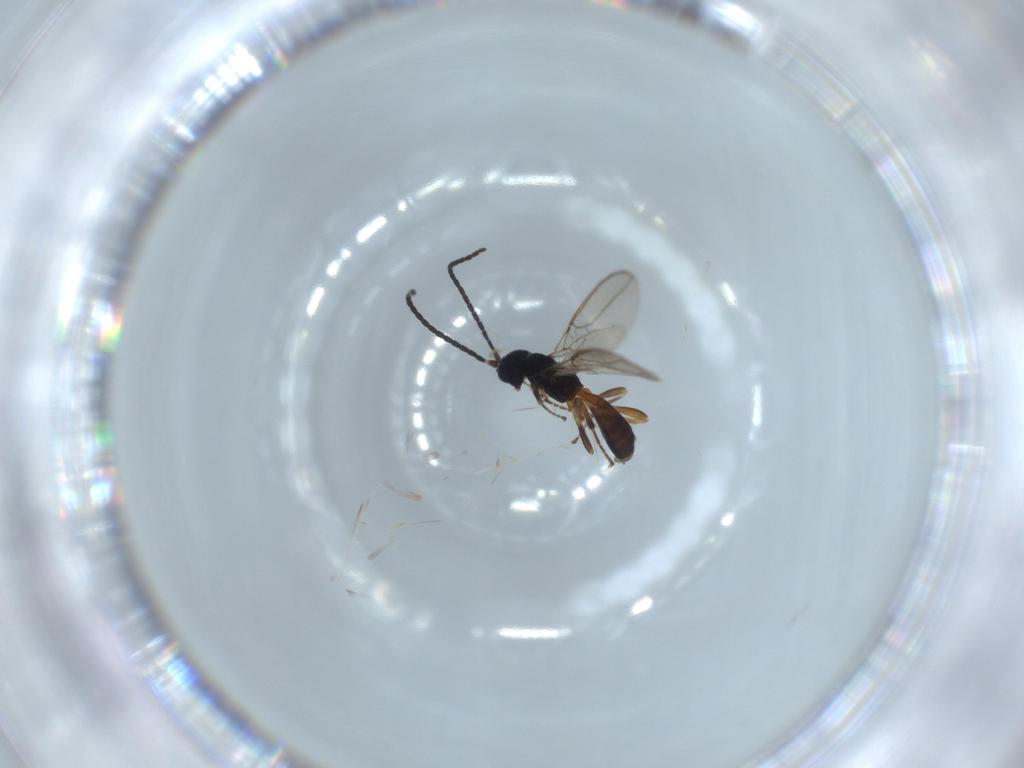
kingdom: Animalia
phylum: Arthropoda
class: Insecta
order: Hymenoptera
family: Braconidae
